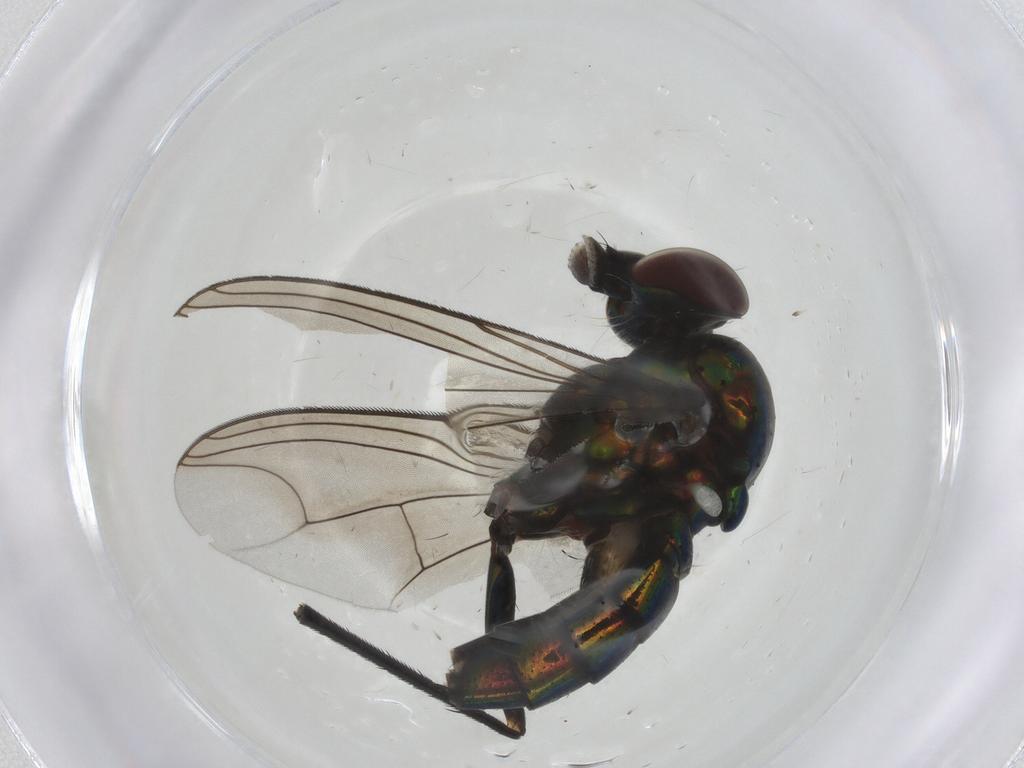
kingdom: Animalia
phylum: Arthropoda
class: Insecta
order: Diptera
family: Dolichopodidae
